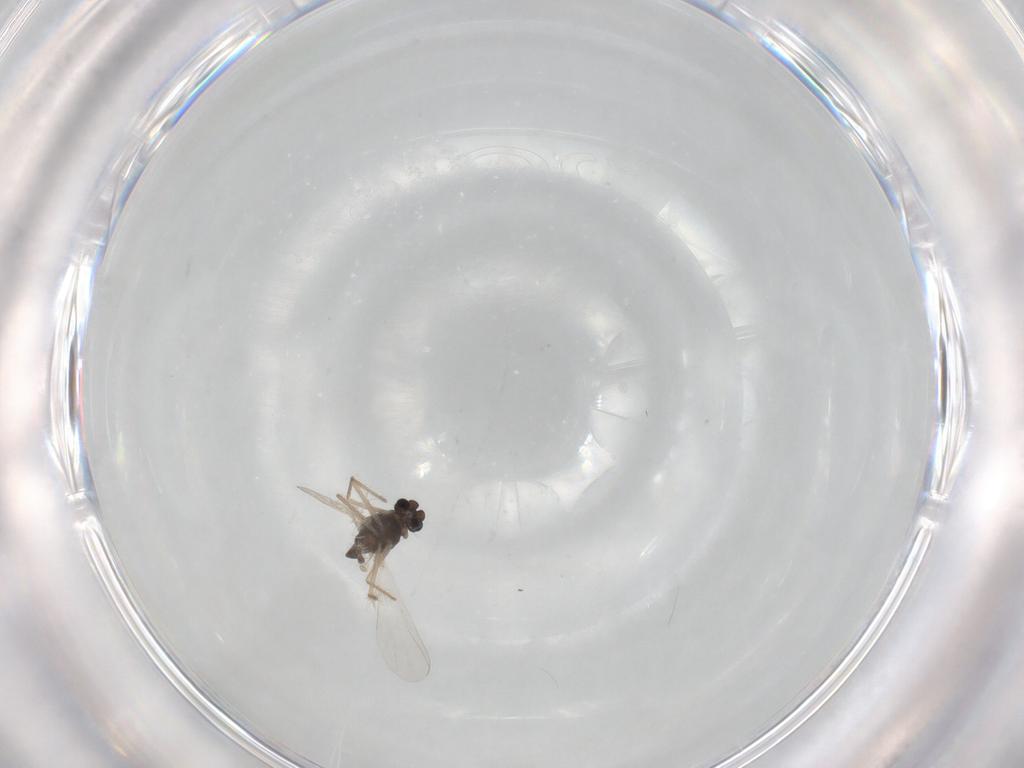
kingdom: Animalia
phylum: Arthropoda
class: Insecta
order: Diptera
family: Chironomidae
